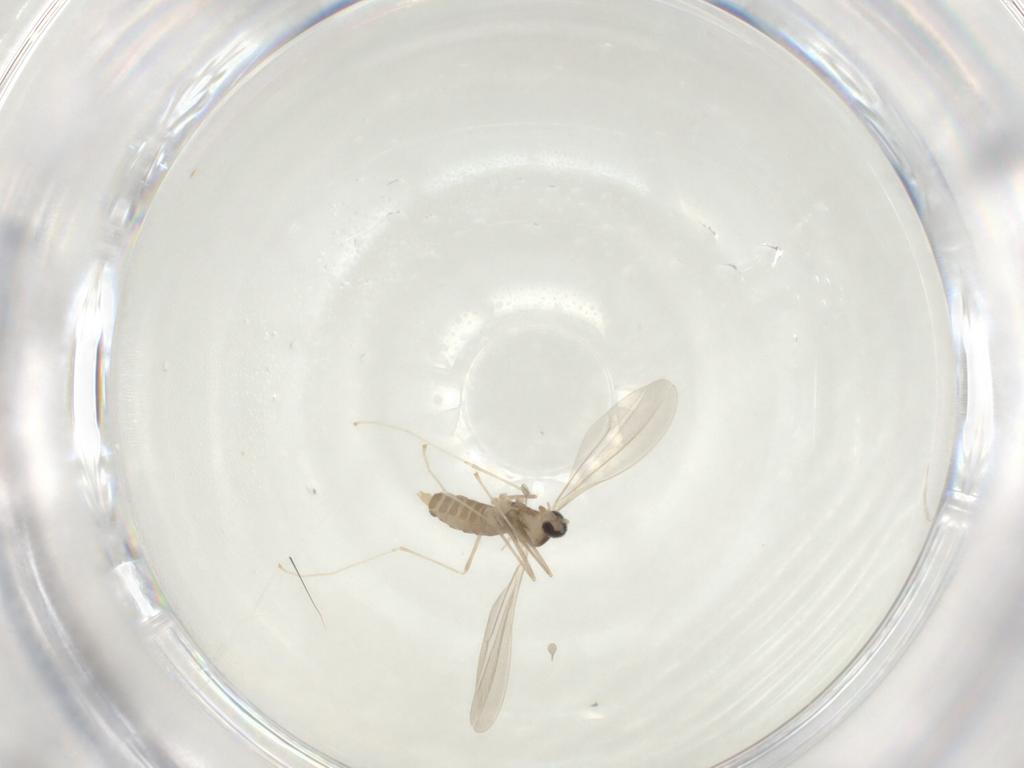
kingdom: Animalia
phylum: Arthropoda
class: Insecta
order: Diptera
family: Cecidomyiidae
